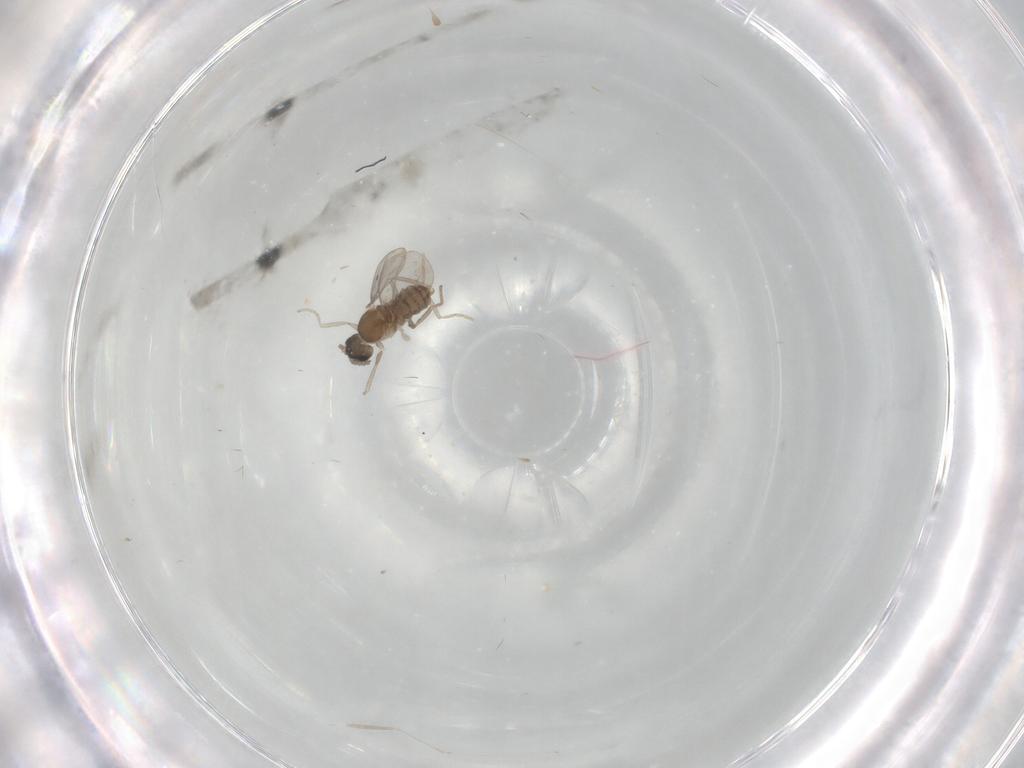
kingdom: Animalia
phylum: Arthropoda
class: Insecta
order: Diptera
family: Cecidomyiidae
